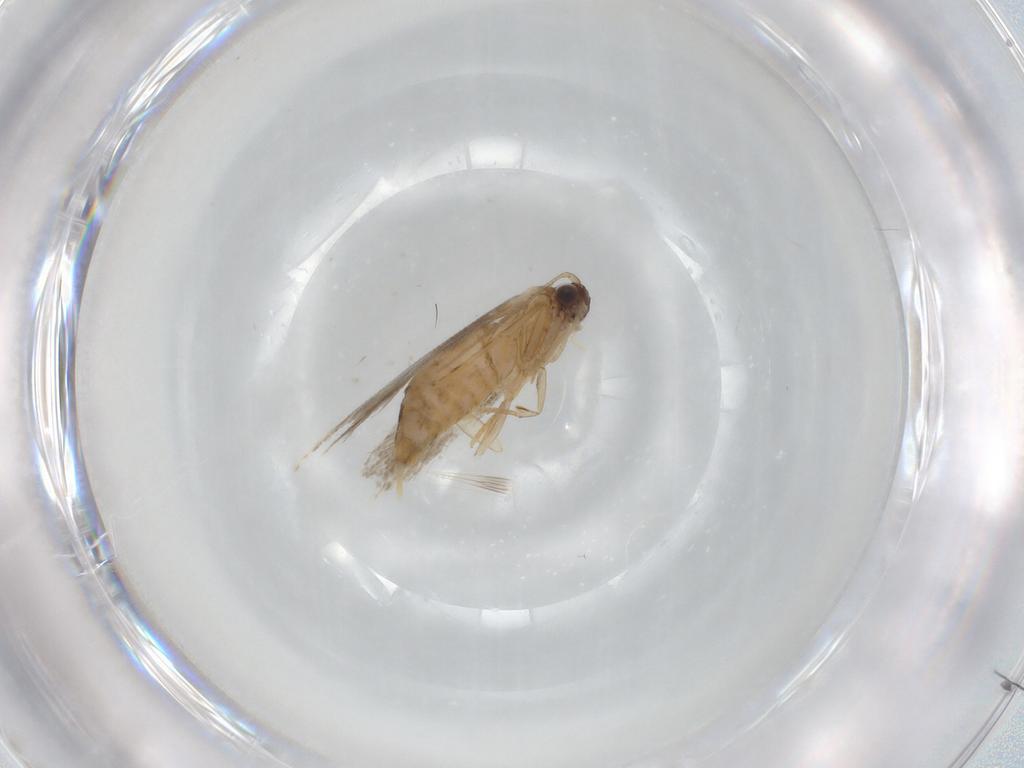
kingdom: Animalia
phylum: Arthropoda
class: Insecta
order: Lepidoptera
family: Tineidae
